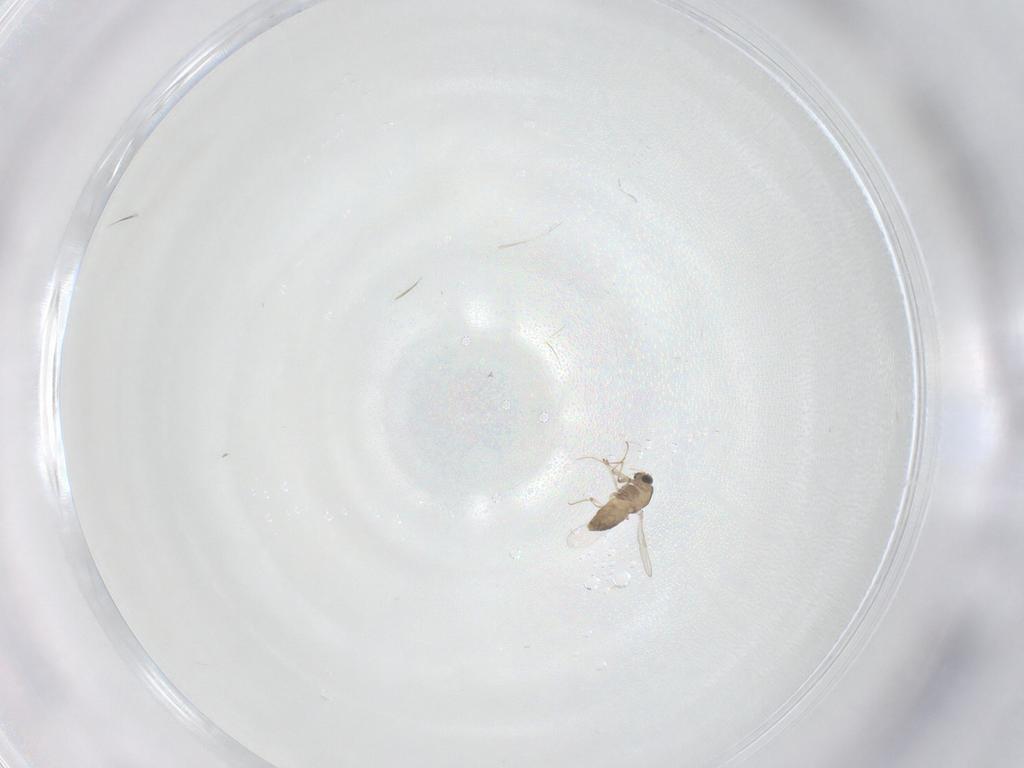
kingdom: Animalia
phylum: Arthropoda
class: Insecta
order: Diptera
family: Chironomidae
